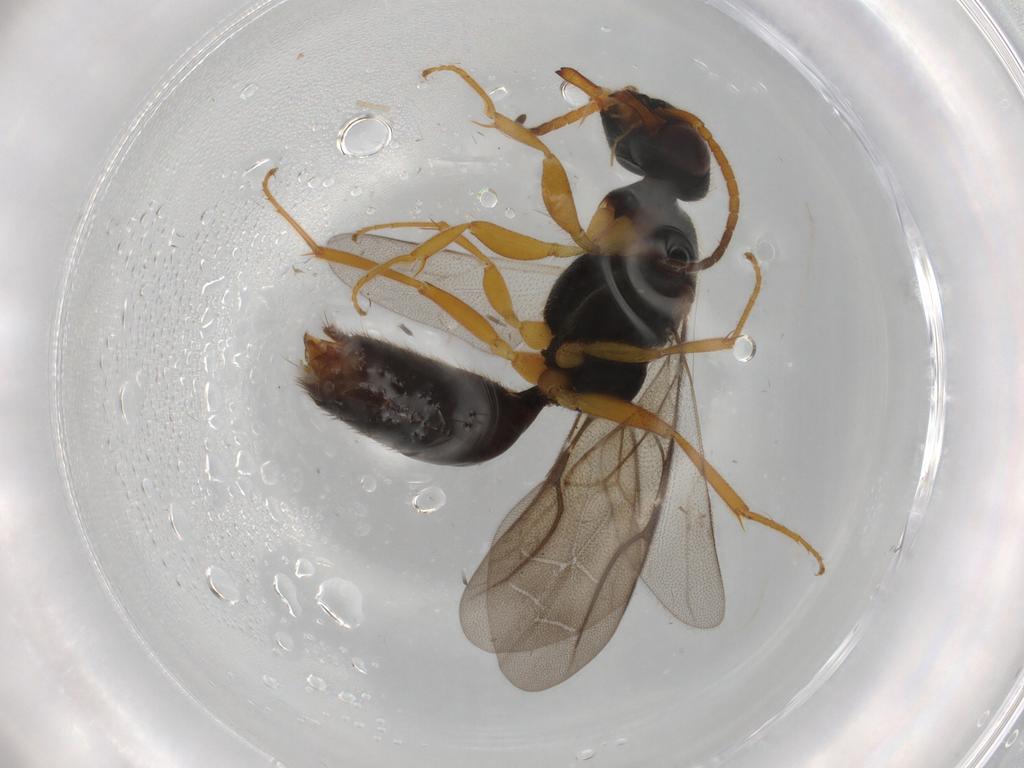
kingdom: Animalia
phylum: Arthropoda
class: Insecta
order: Hymenoptera
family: Bethylidae
